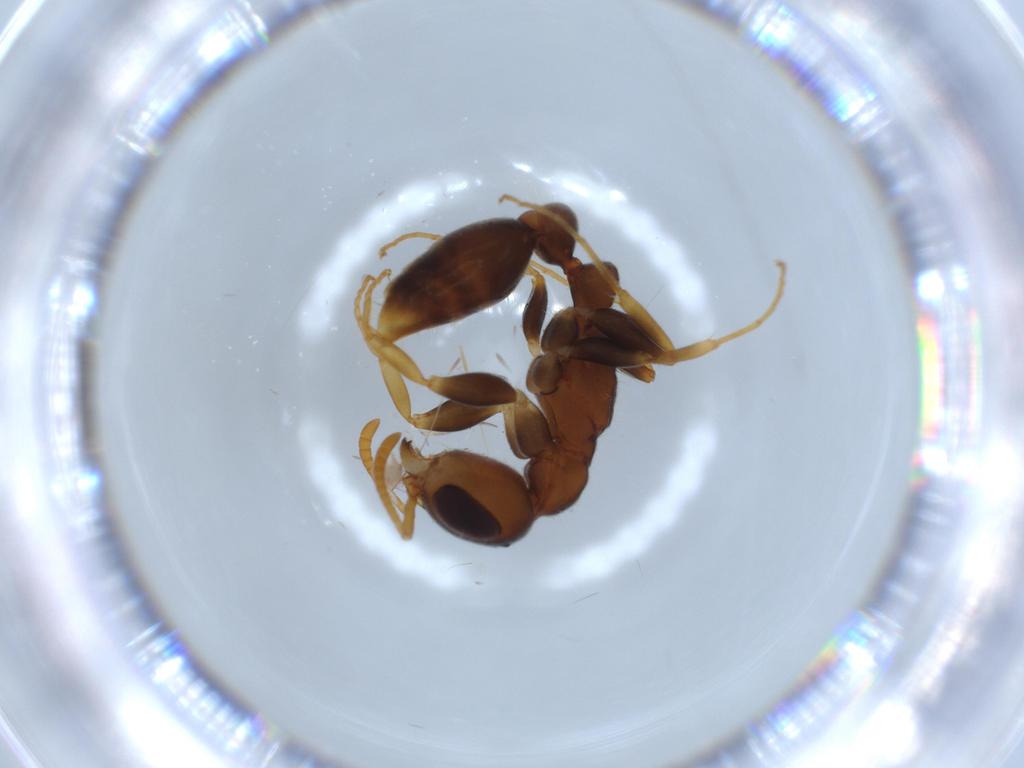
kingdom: Animalia
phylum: Arthropoda
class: Insecta
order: Hymenoptera
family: Formicidae
